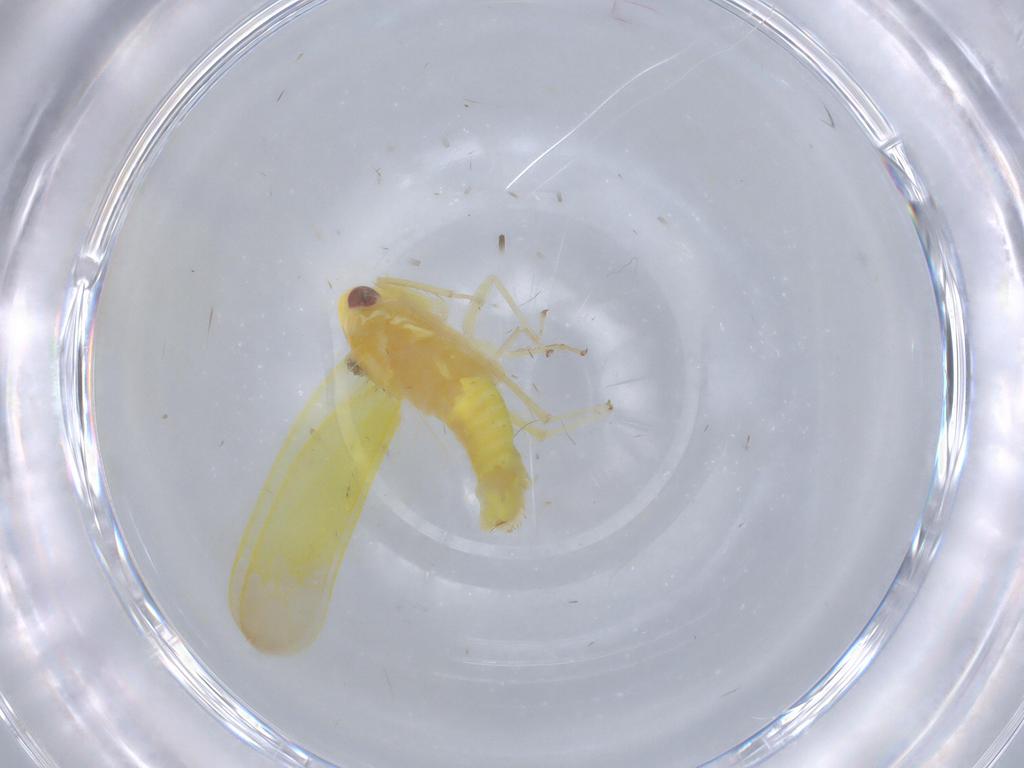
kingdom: Animalia
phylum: Arthropoda
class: Insecta
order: Hemiptera
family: Cicadellidae
